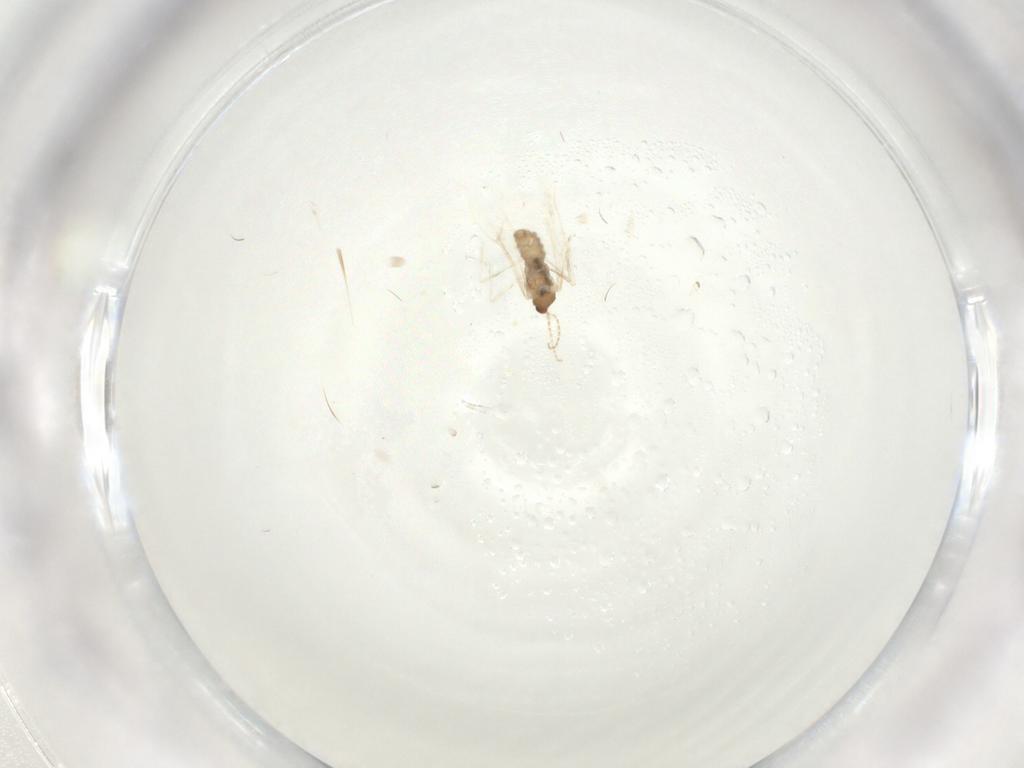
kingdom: Animalia
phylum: Arthropoda
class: Insecta
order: Diptera
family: Cecidomyiidae
